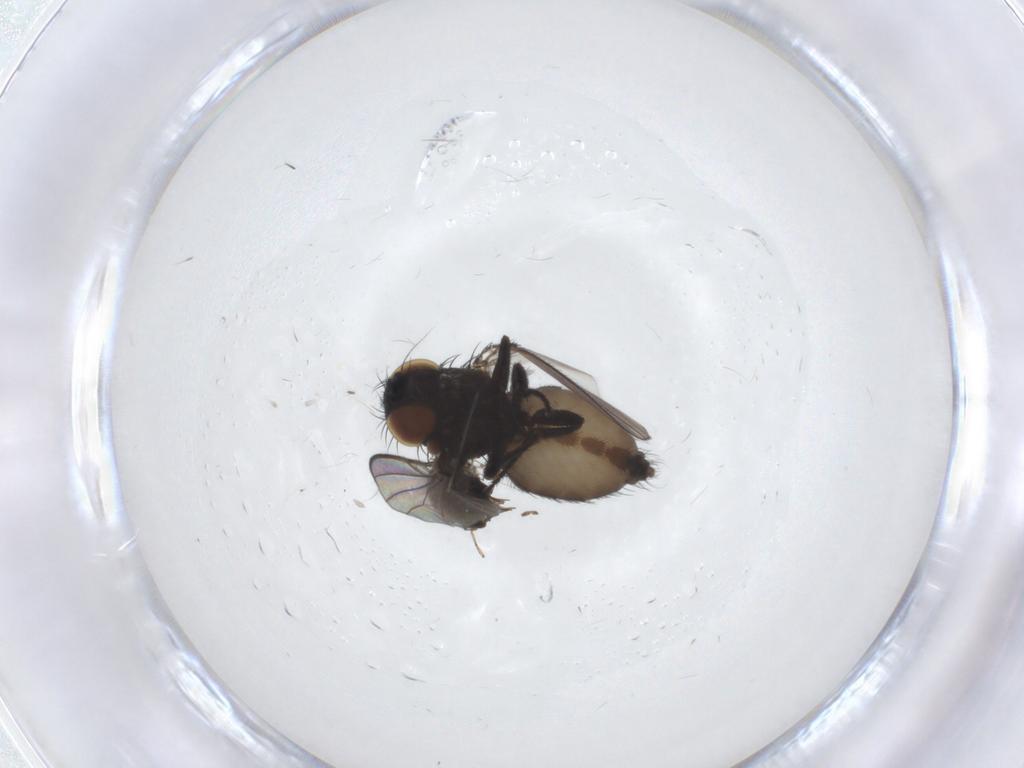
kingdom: Animalia
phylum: Arthropoda
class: Insecta
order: Diptera
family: Milichiidae
